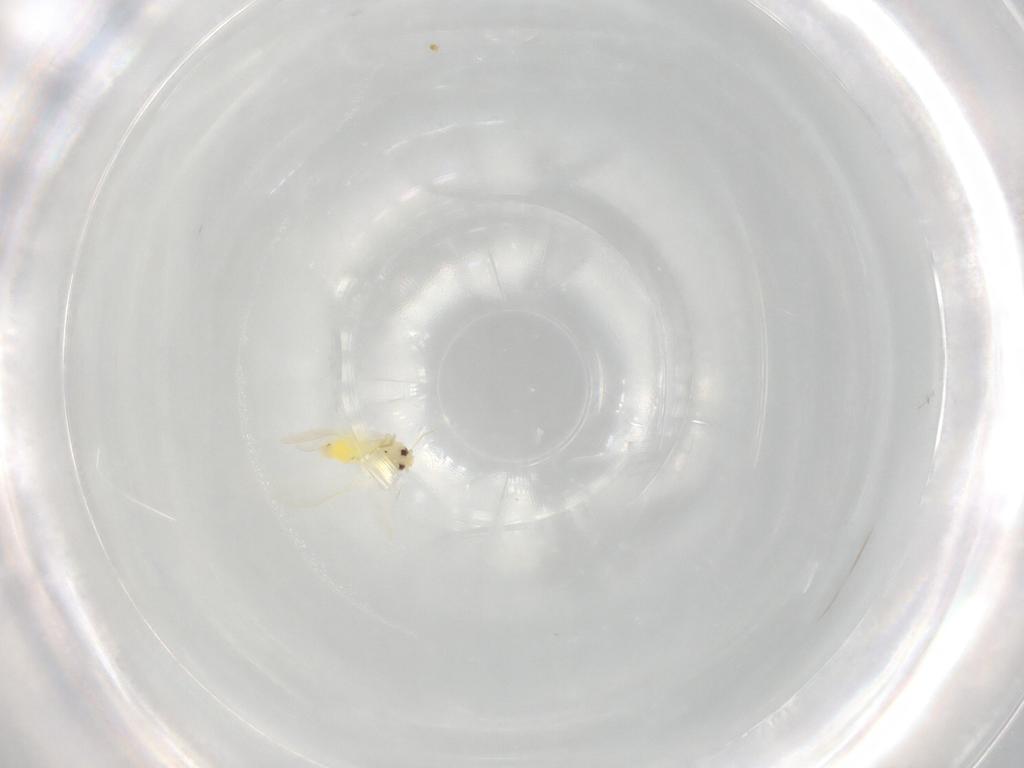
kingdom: Animalia
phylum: Arthropoda
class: Insecta
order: Hemiptera
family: Aleyrodidae
